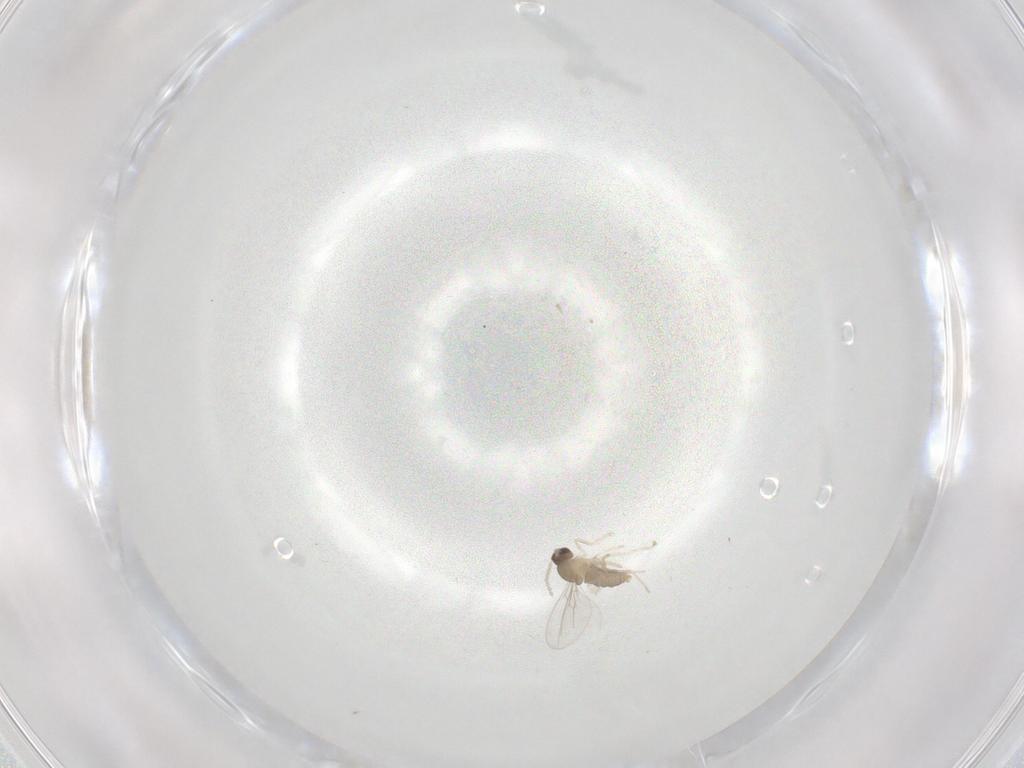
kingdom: Animalia
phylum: Arthropoda
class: Insecta
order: Diptera
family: Cecidomyiidae
